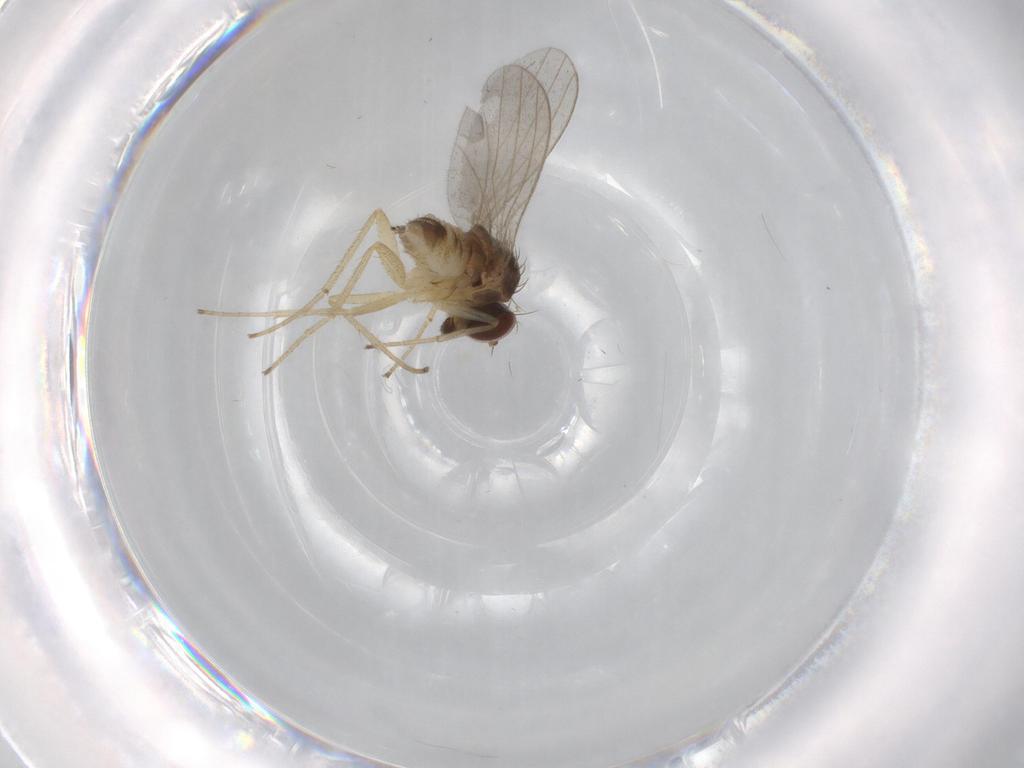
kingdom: Animalia
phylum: Arthropoda
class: Insecta
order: Diptera
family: Dolichopodidae
